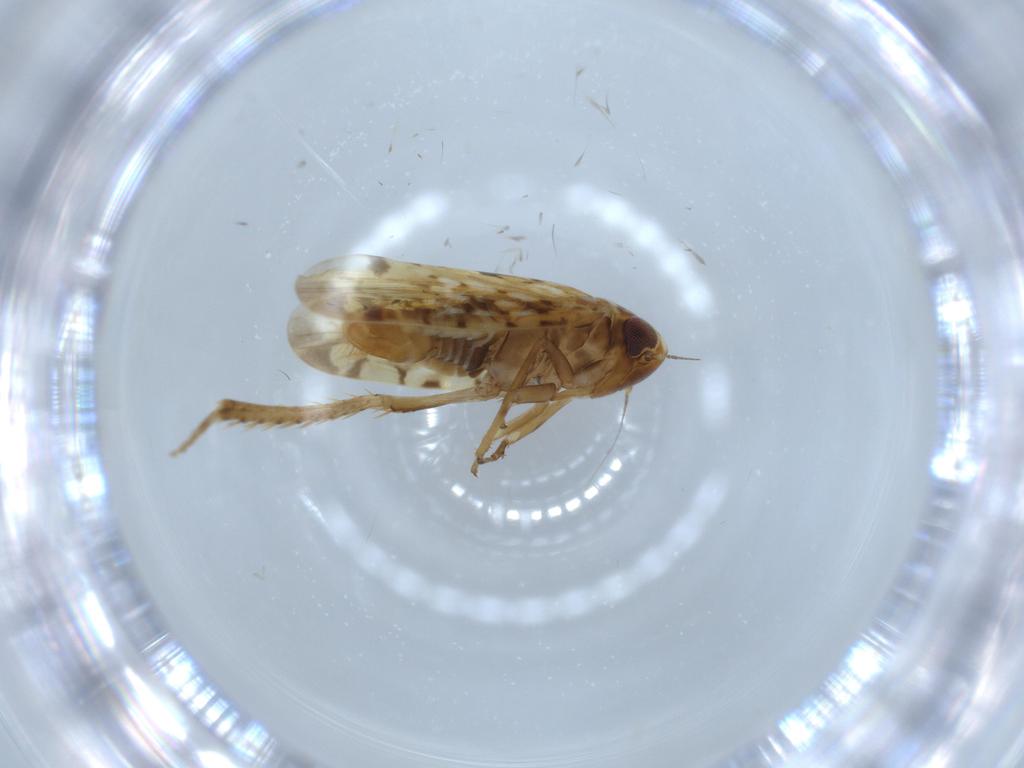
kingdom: Animalia
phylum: Arthropoda
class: Insecta
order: Hemiptera
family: Cicadellidae
